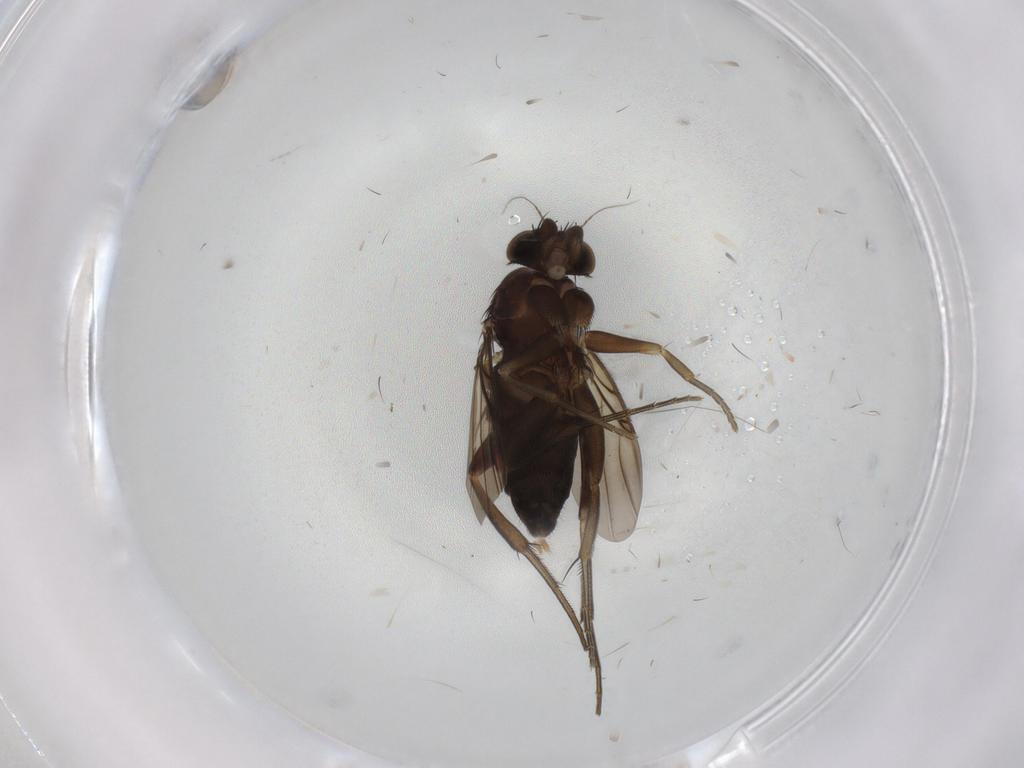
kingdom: Animalia
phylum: Arthropoda
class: Insecta
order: Diptera
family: Phoridae
